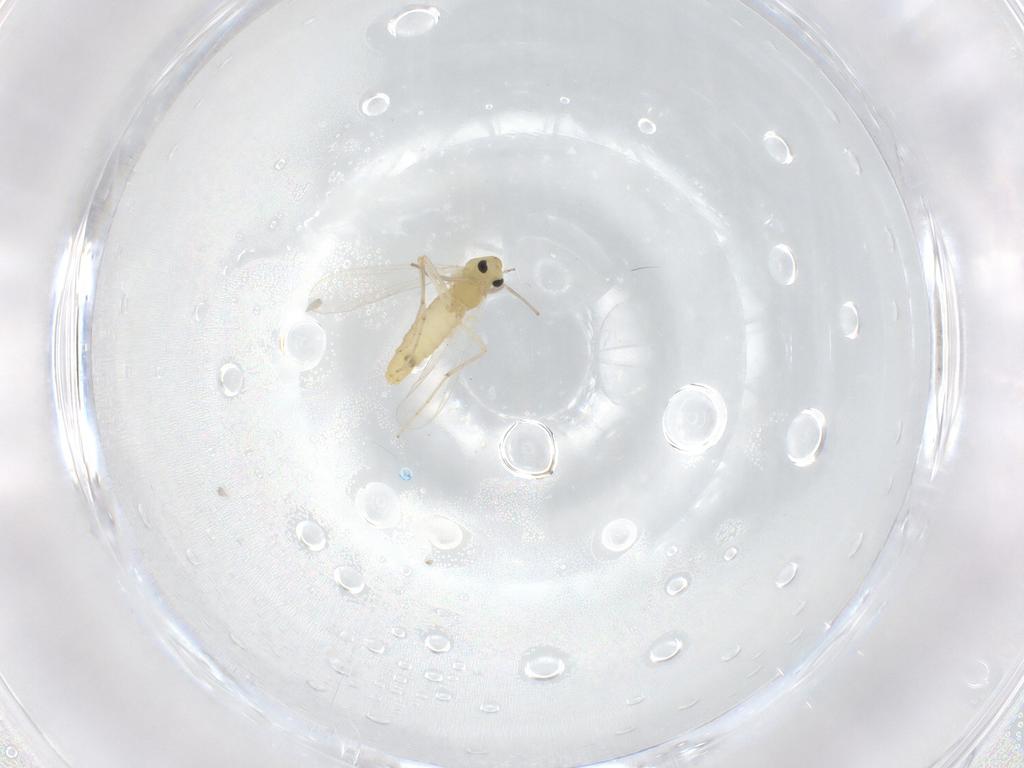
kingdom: Animalia
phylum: Arthropoda
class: Insecta
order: Diptera
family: Chironomidae
